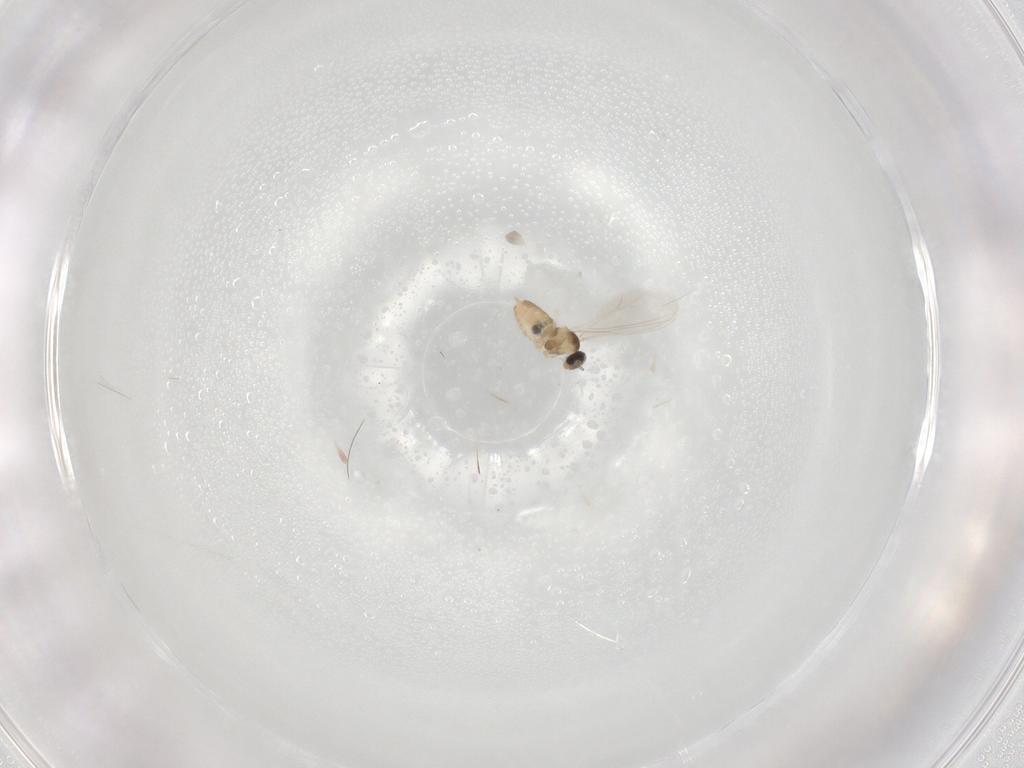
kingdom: Animalia
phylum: Arthropoda
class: Insecta
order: Diptera
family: Cecidomyiidae
